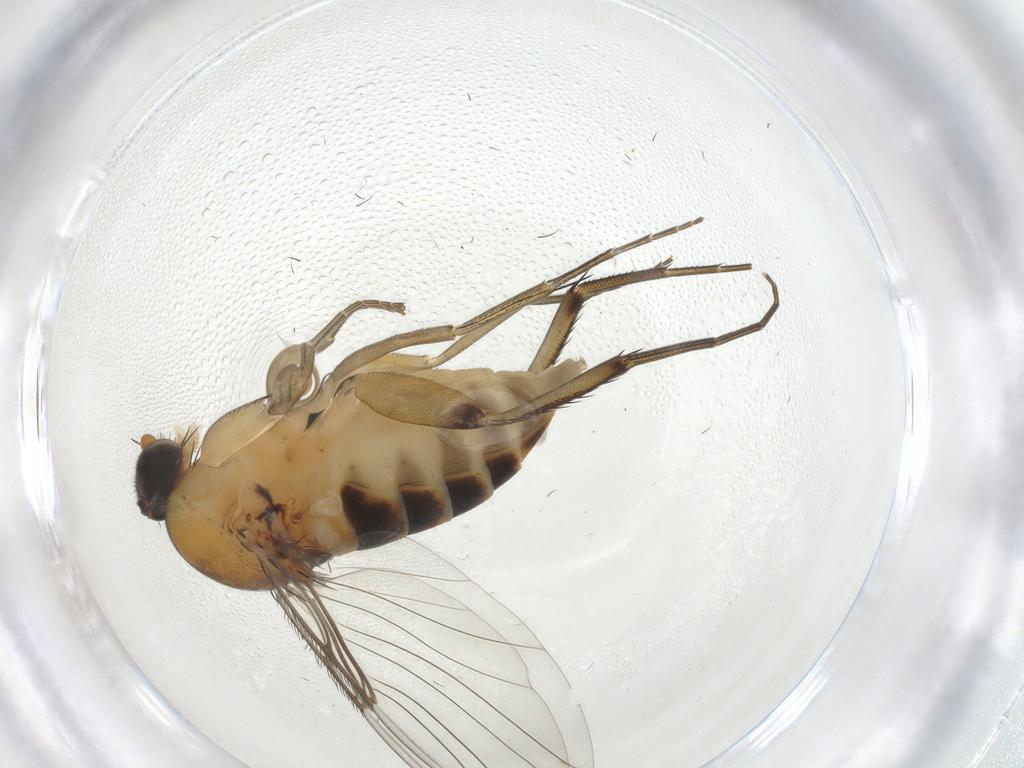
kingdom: Animalia
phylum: Arthropoda
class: Insecta
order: Diptera
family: Phoridae
